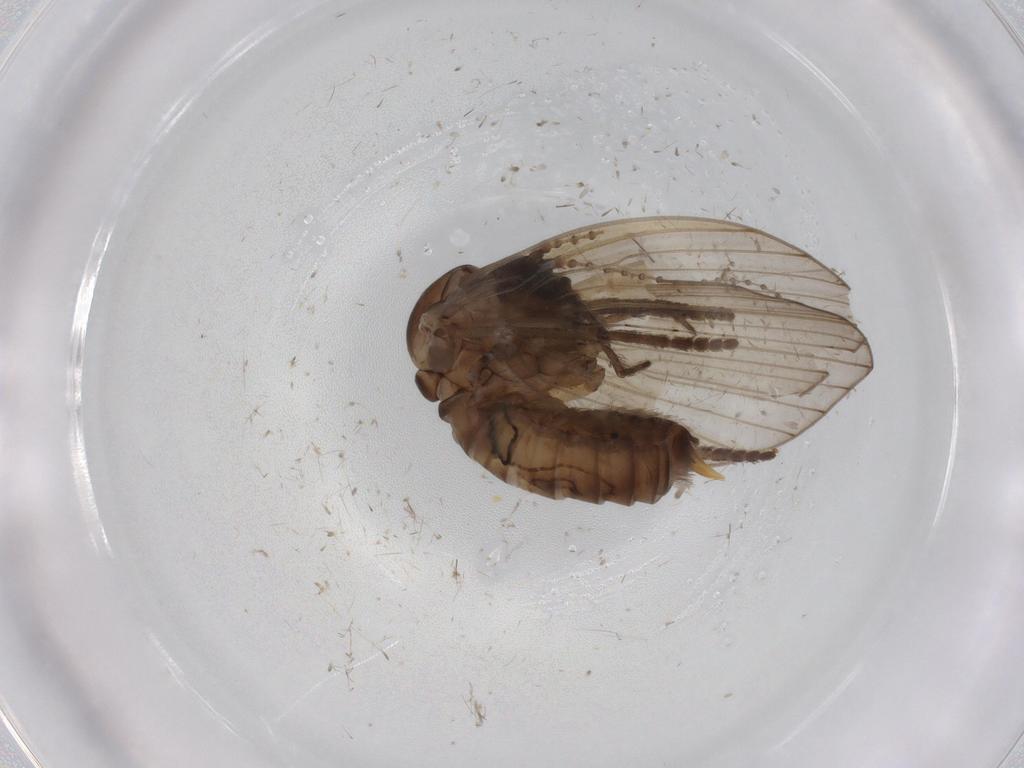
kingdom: Animalia
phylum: Arthropoda
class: Insecta
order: Diptera
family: Cecidomyiidae
